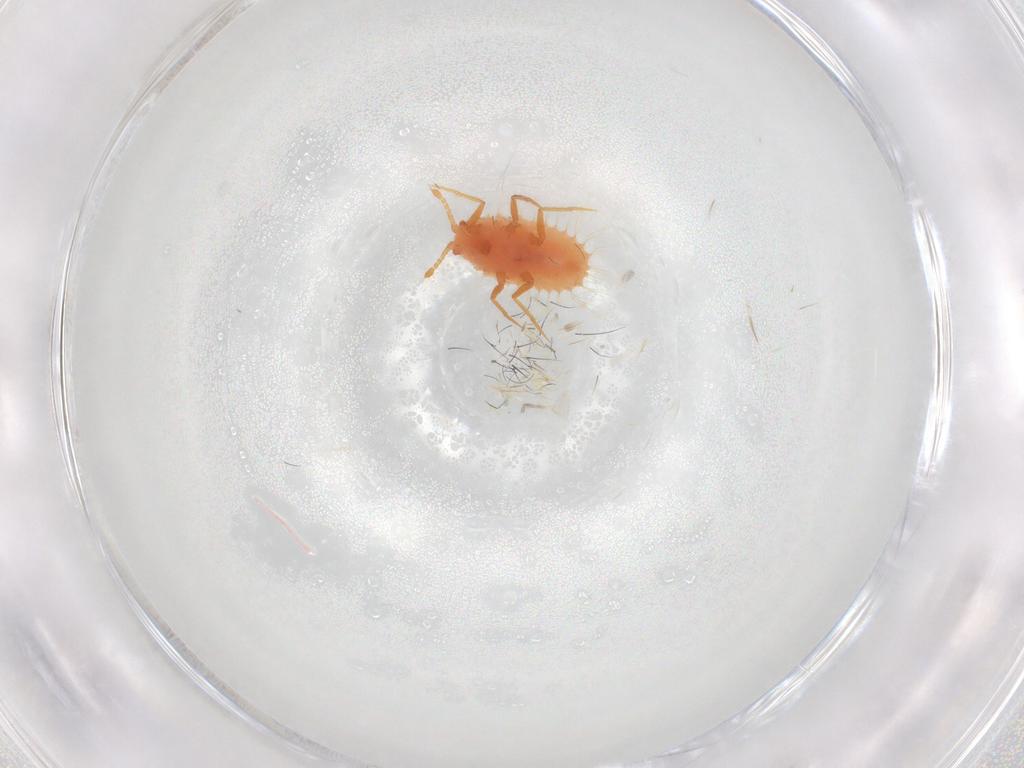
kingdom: Animalia
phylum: Arthropoda
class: Insecta
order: Hemiptera
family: Coccoidea_incertae_sedis
